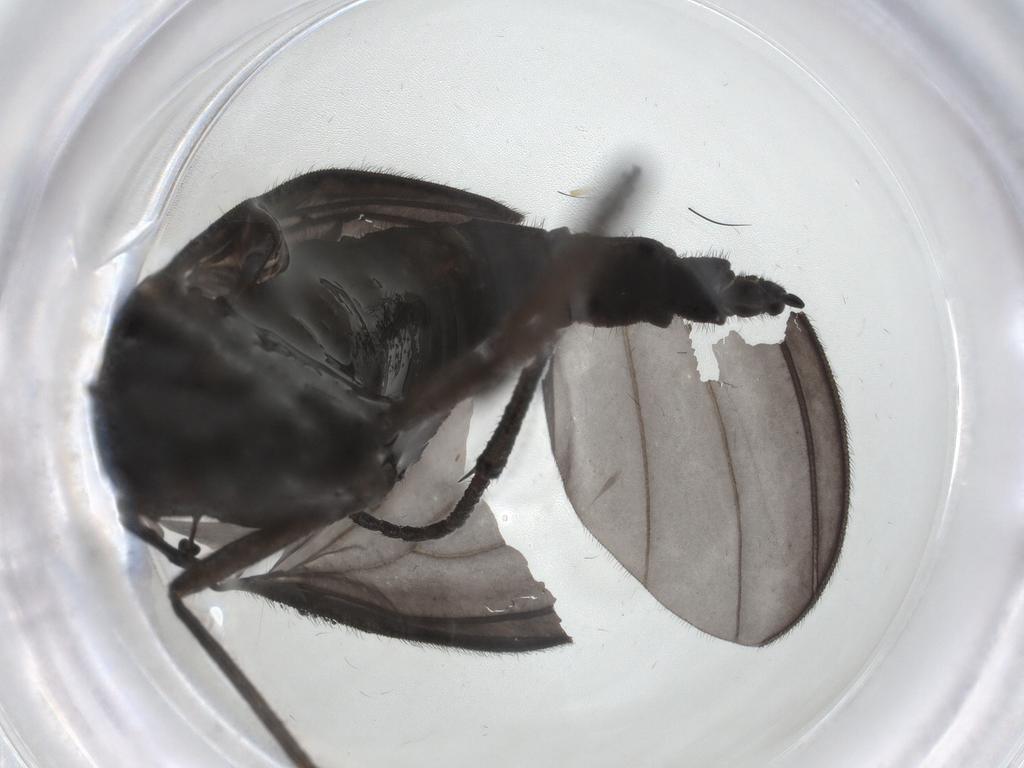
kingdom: Animalia
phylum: Arthropoda
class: Insecta
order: Diptera
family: Sciaridae
